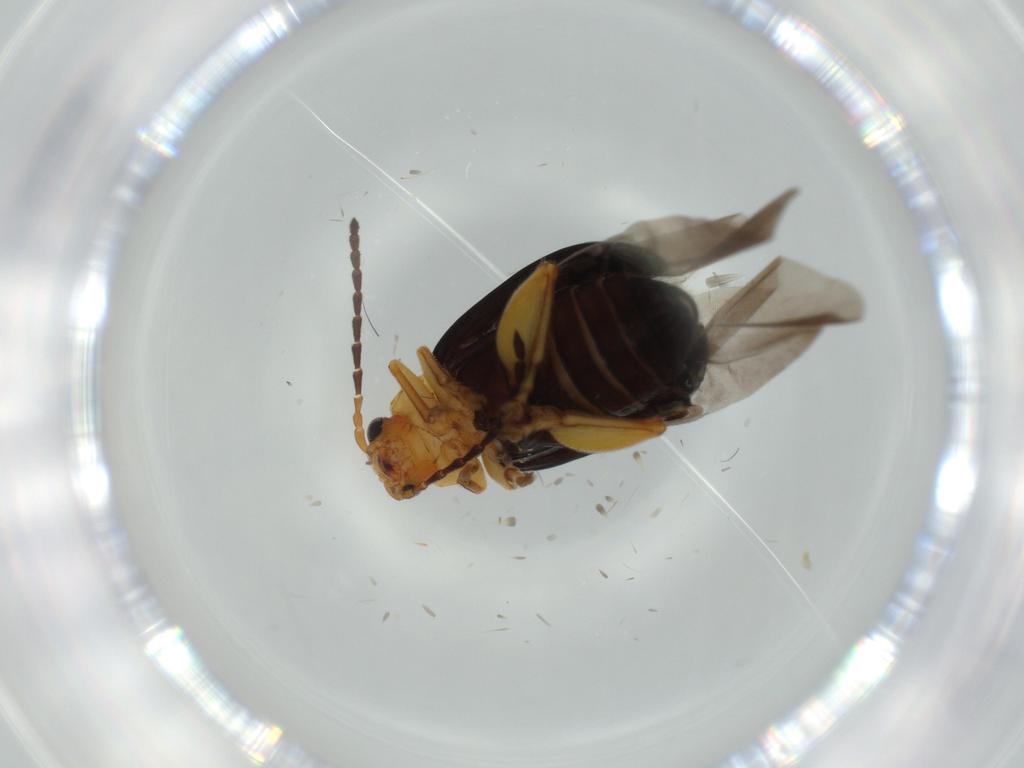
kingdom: Animalia
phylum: Arthropoda
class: Insecta
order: Coleoptera
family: Chrysomelidae
